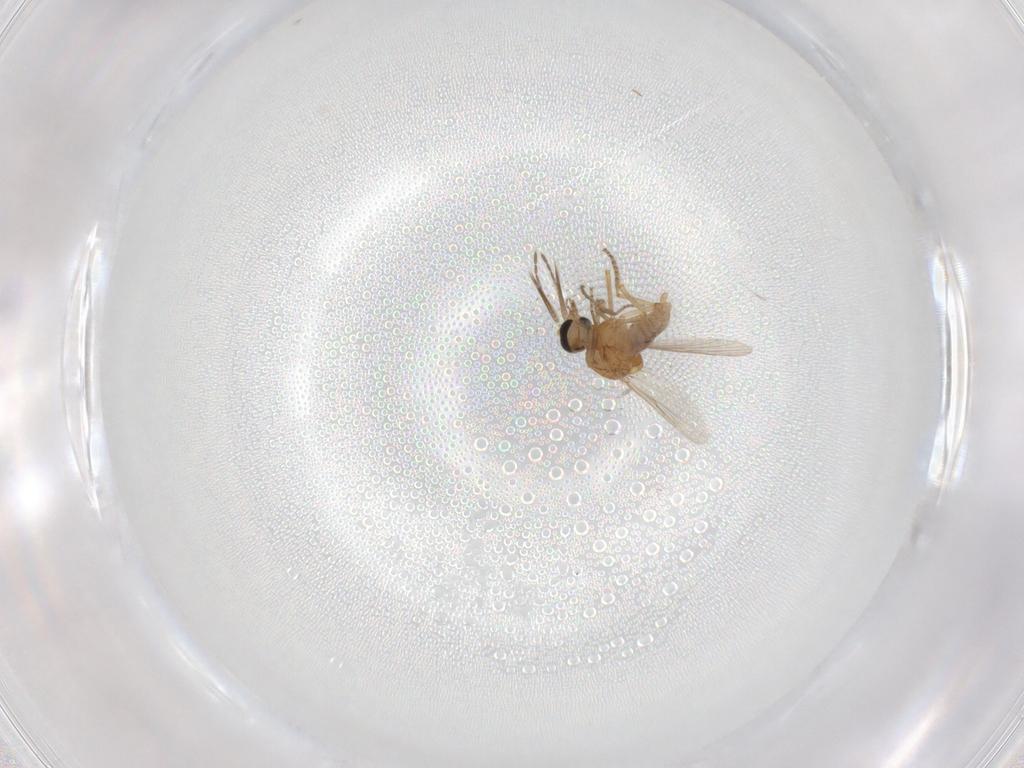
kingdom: Animalia
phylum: Arthropoda
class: Insecta
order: Diptera
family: Ceratopogonidae
